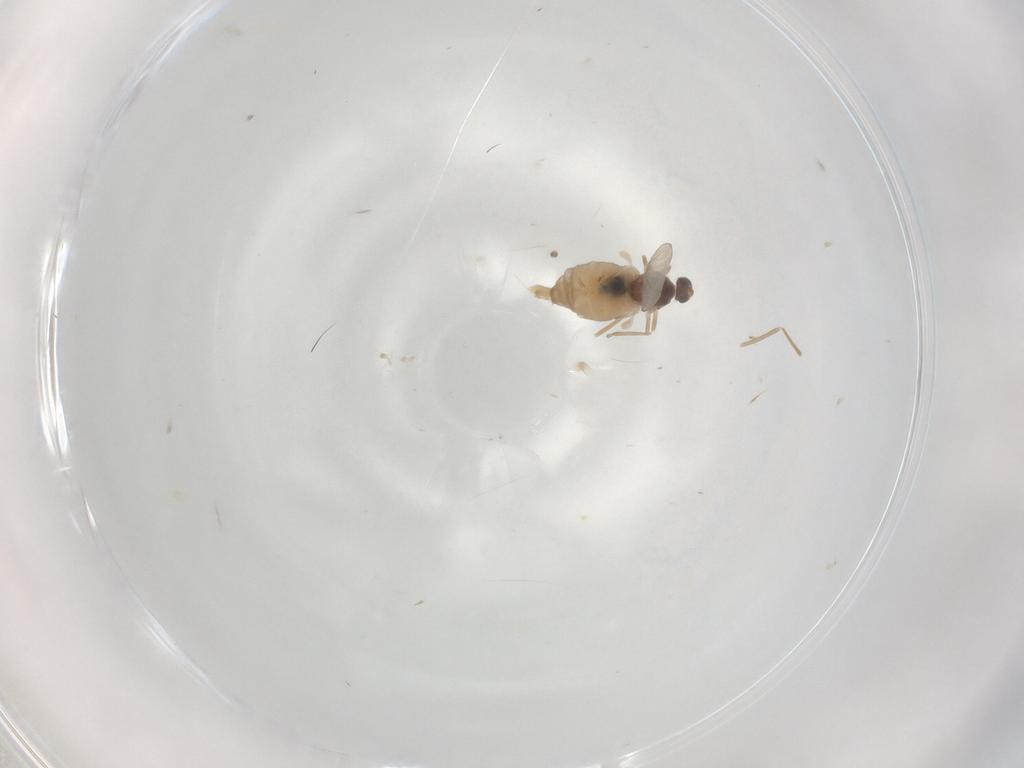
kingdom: Animalia
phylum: Arthropoda
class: Insecta
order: Diptera
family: Cecidomyiidae
